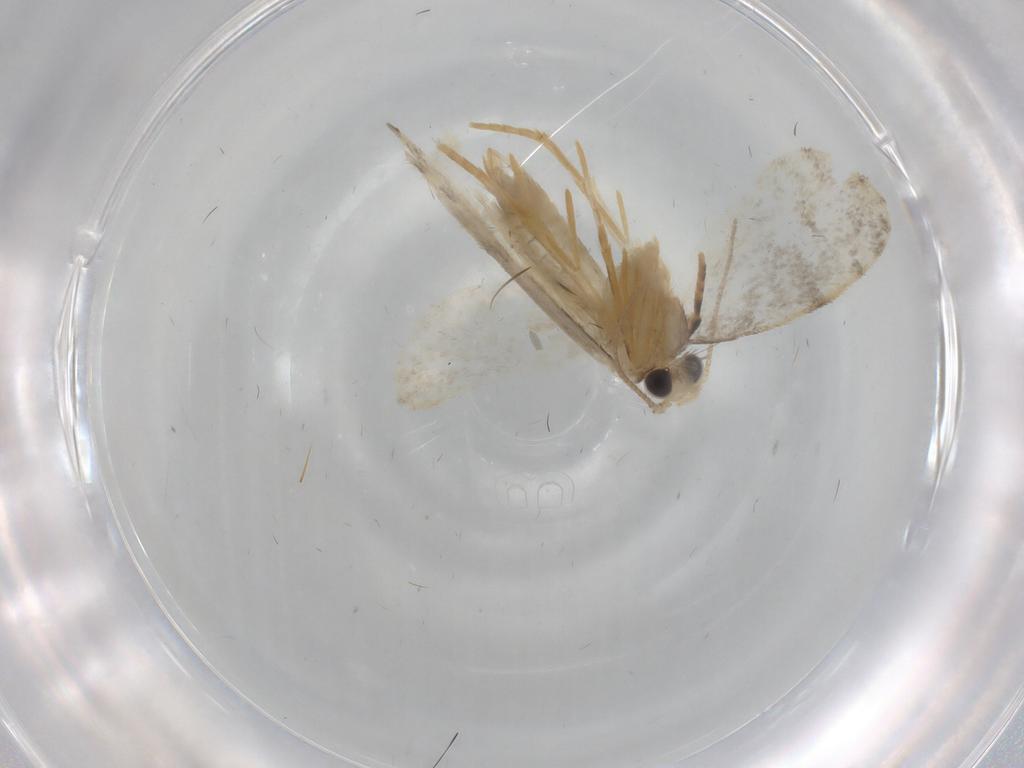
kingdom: Animalia
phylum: Arthropoda
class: Insecta
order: Lepidoptera
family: Psychidae
